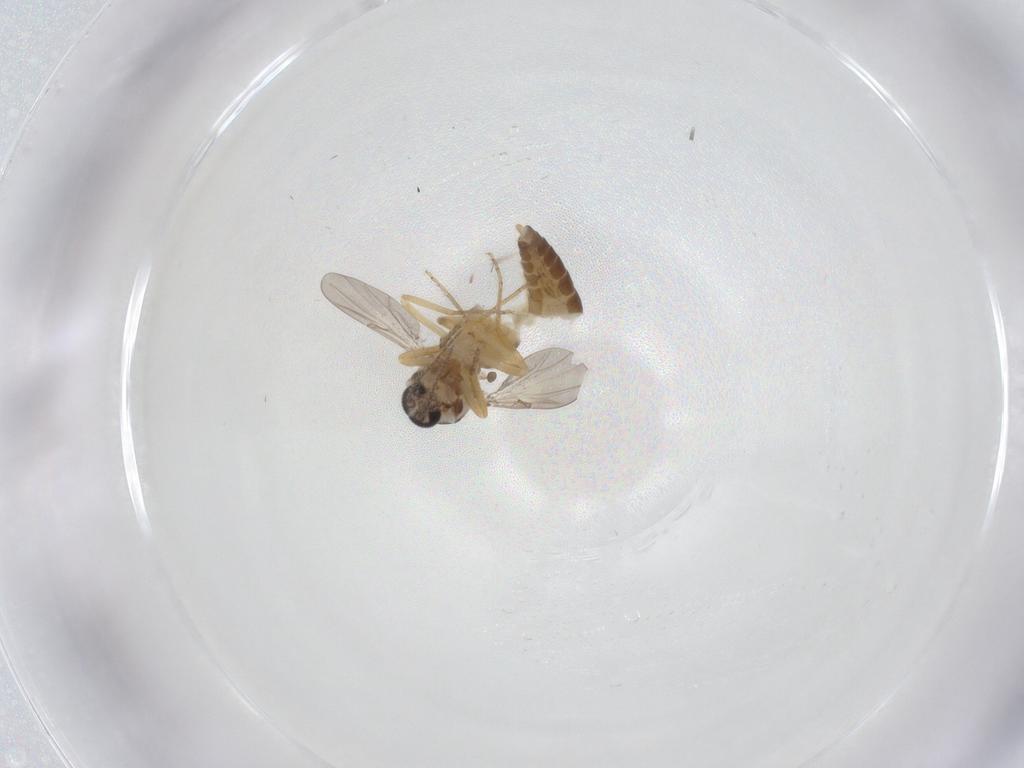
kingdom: Animalia
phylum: Arthropoda
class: Insecta
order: Diptera
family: Ceratopogonidae
